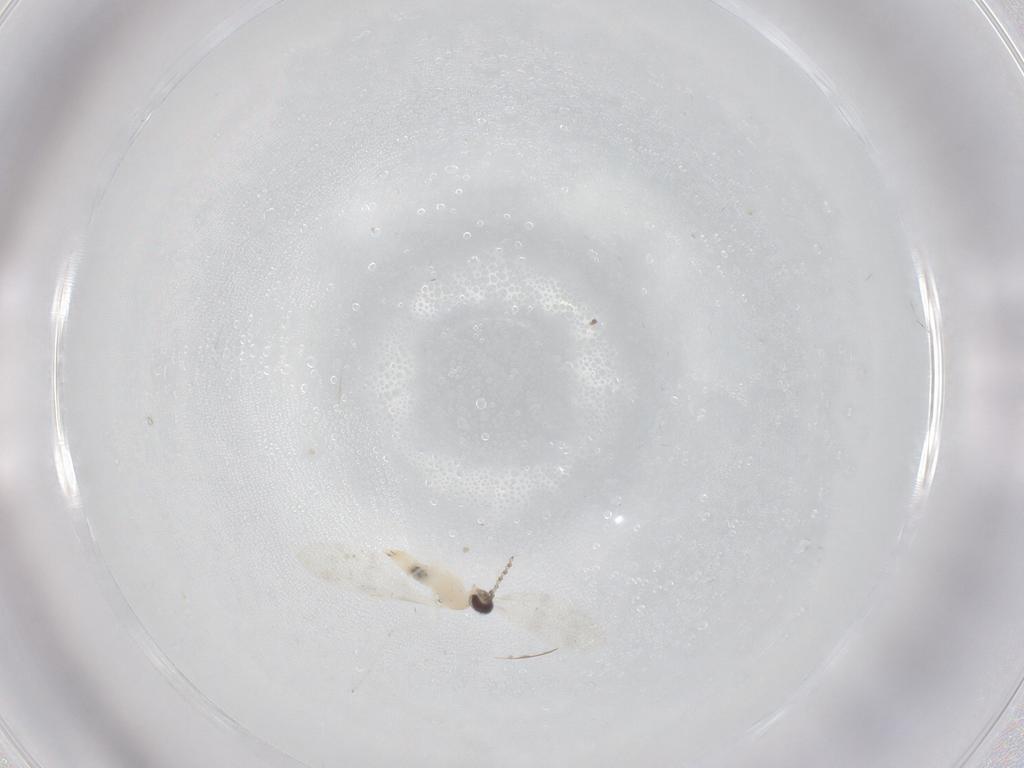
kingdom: Animalia
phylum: Arthropoda
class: Insecta
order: Diptera
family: Cecidomyiidae
